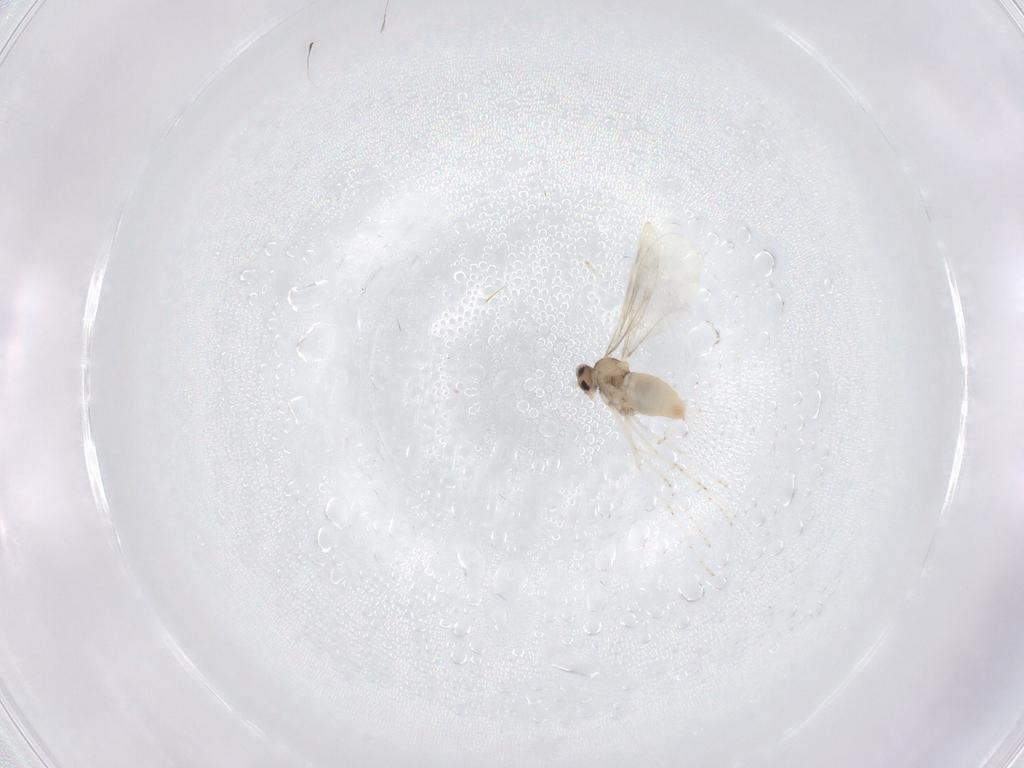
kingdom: Animalia
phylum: Arthropoda
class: Insecta
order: Diptera
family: Cecidomyiidae
